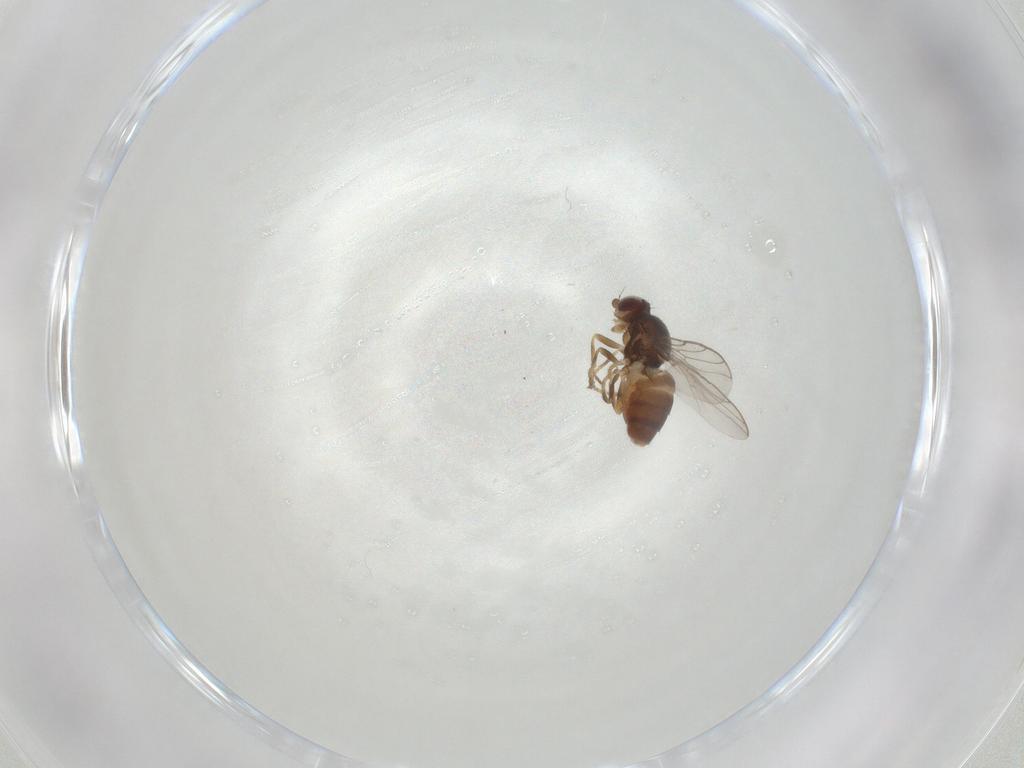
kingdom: Animalia
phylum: Arthropoda
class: Insecta
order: Diptera
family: Chloropidae
